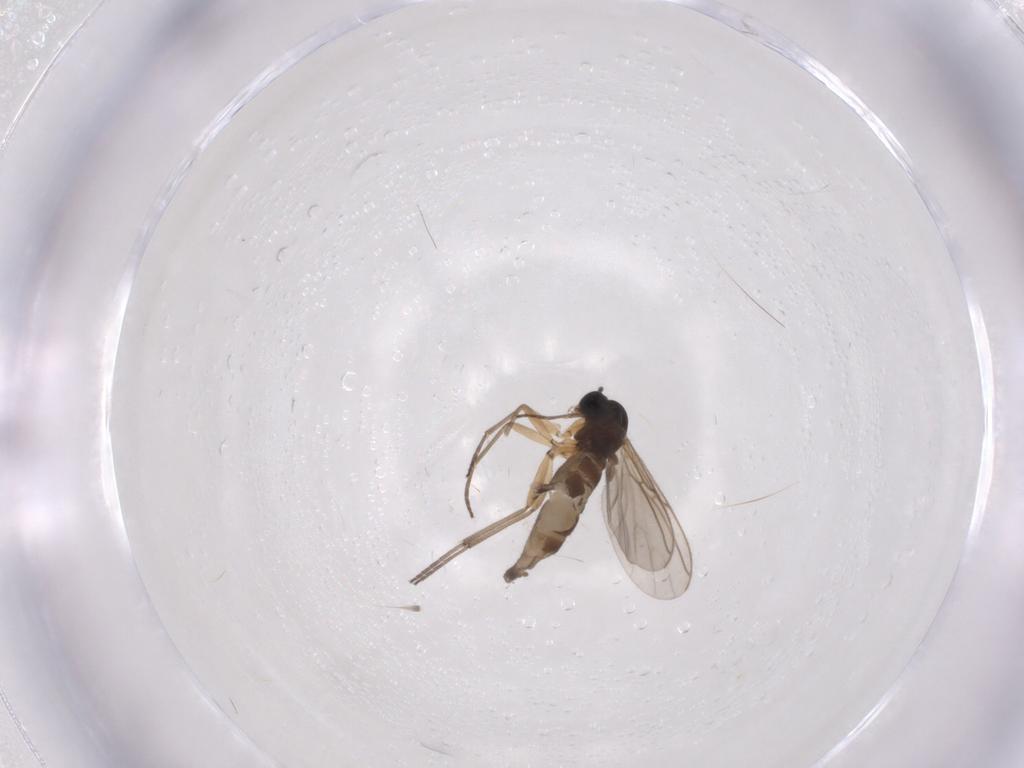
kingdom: Animalia
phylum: Arthropoda
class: Insecta
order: Diptera
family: Sciaridae
